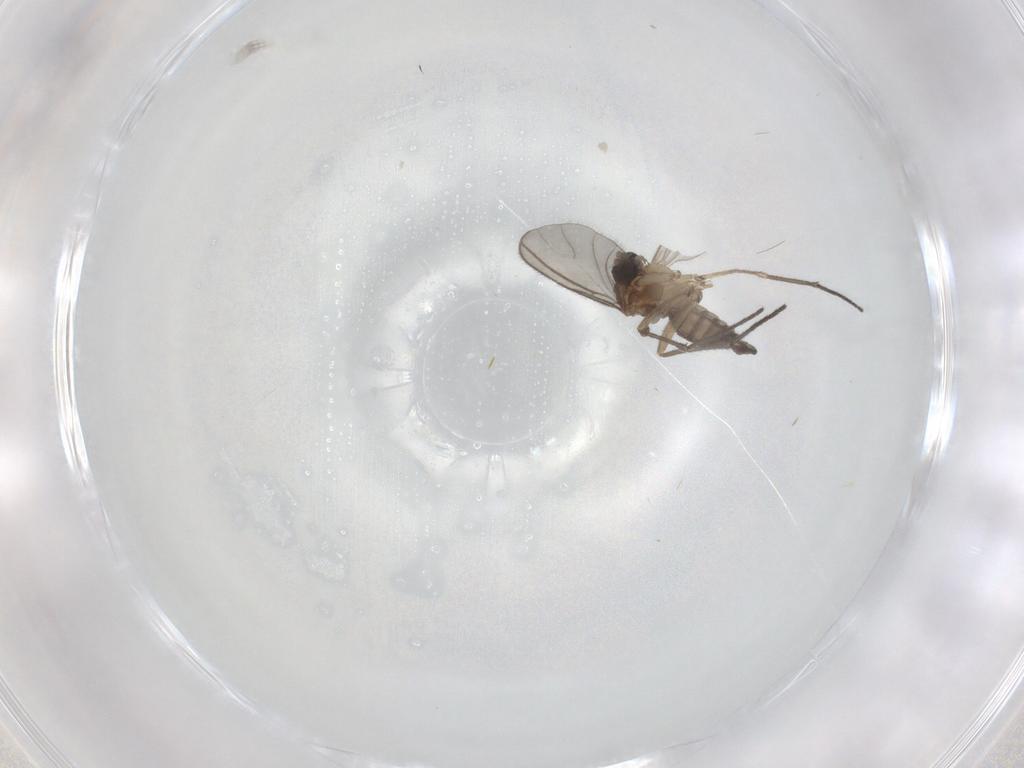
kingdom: Animalia
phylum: Arthropoda
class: Insecta
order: Diptera
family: Sciaridae
